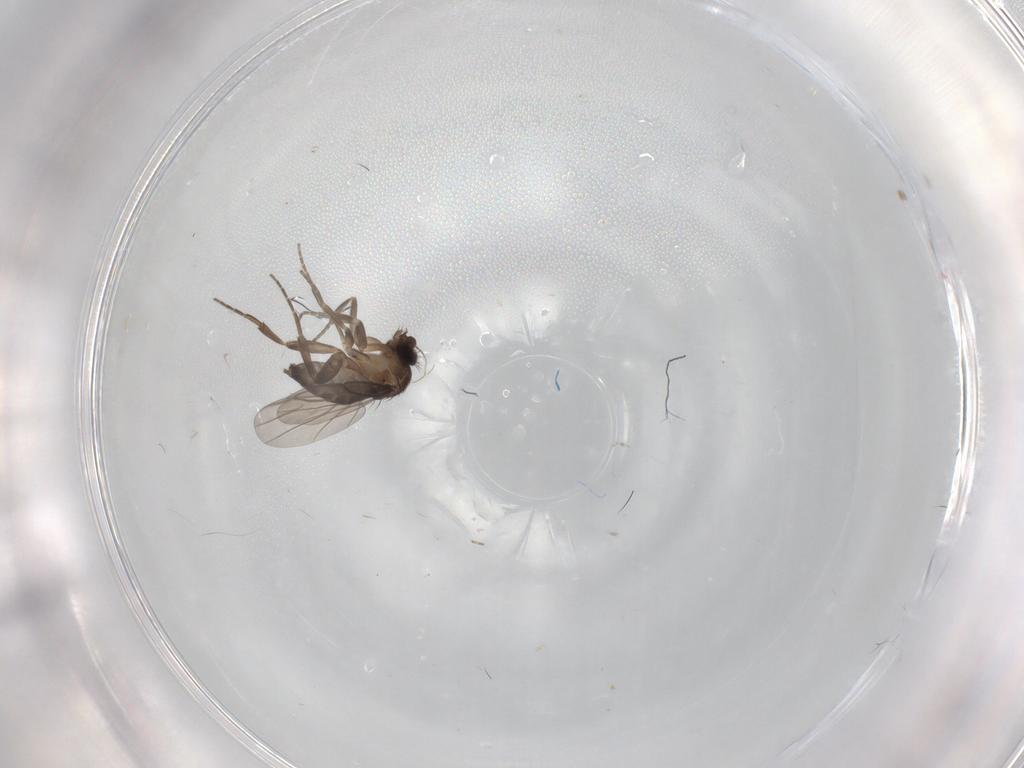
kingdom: Animalia
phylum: Arthropoda
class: Insecta
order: Diptera
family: Phoridae
